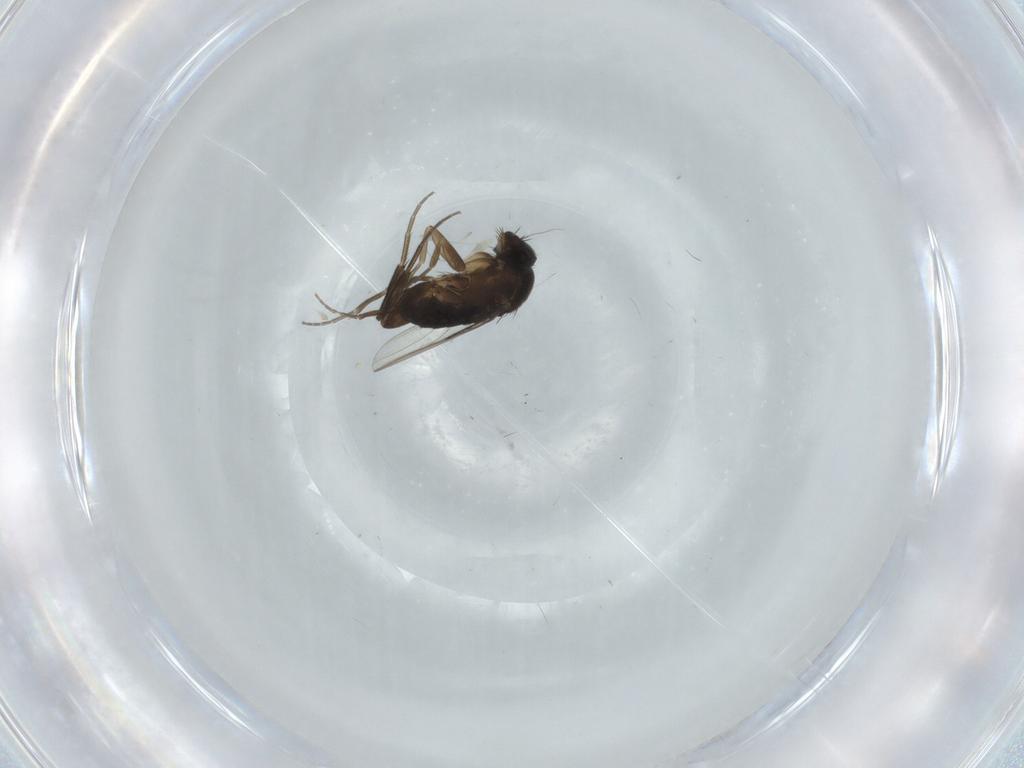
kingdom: Animalia
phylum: Arthropoda
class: Insecta
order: Diptera
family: Phoridae
